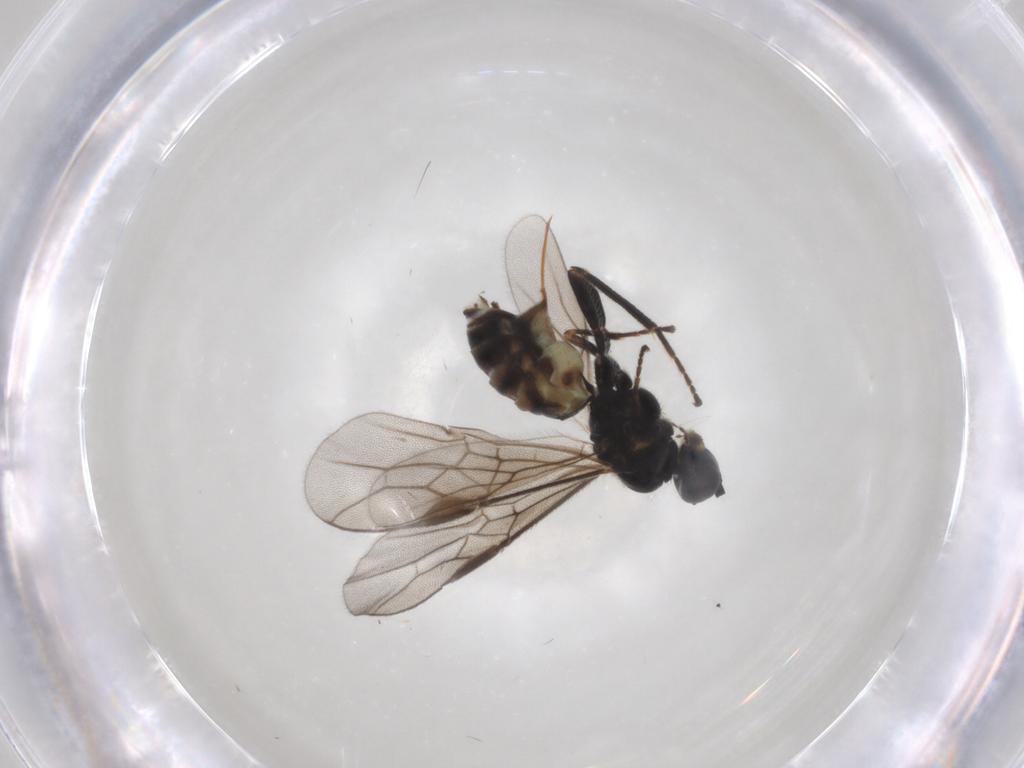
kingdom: Animalia
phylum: Arthropoda
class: Insecta
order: Hymenoptera
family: Braconidae
